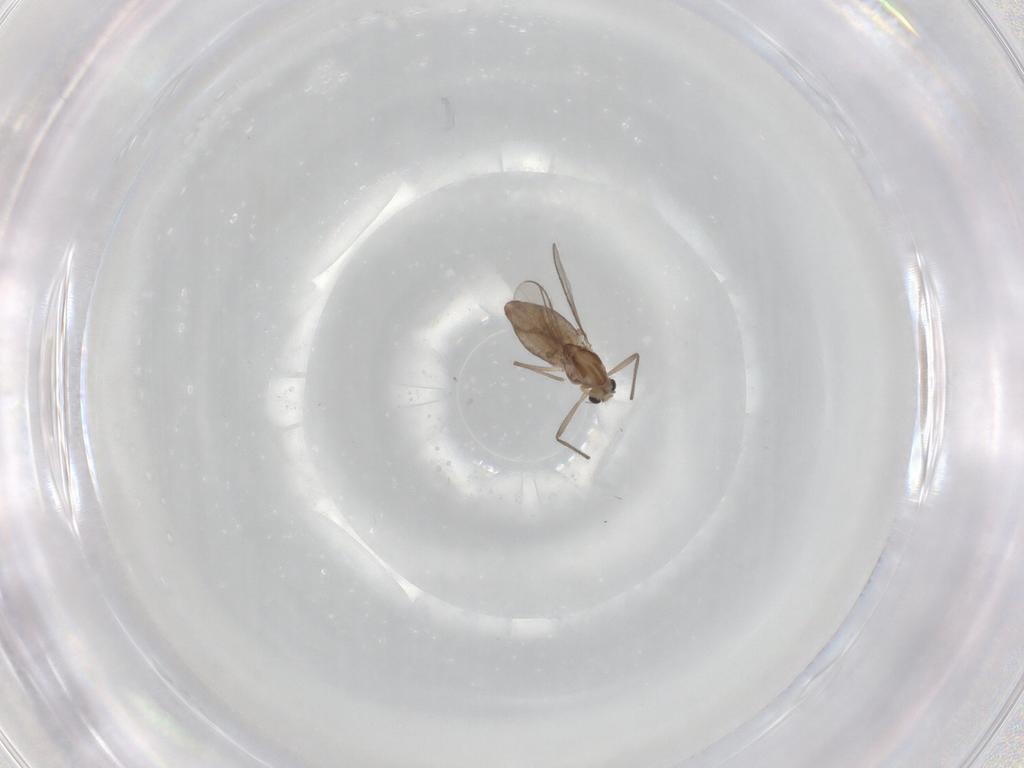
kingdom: Animalia
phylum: Arthropoda
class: Insecta
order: Diptera
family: Chironomidae
